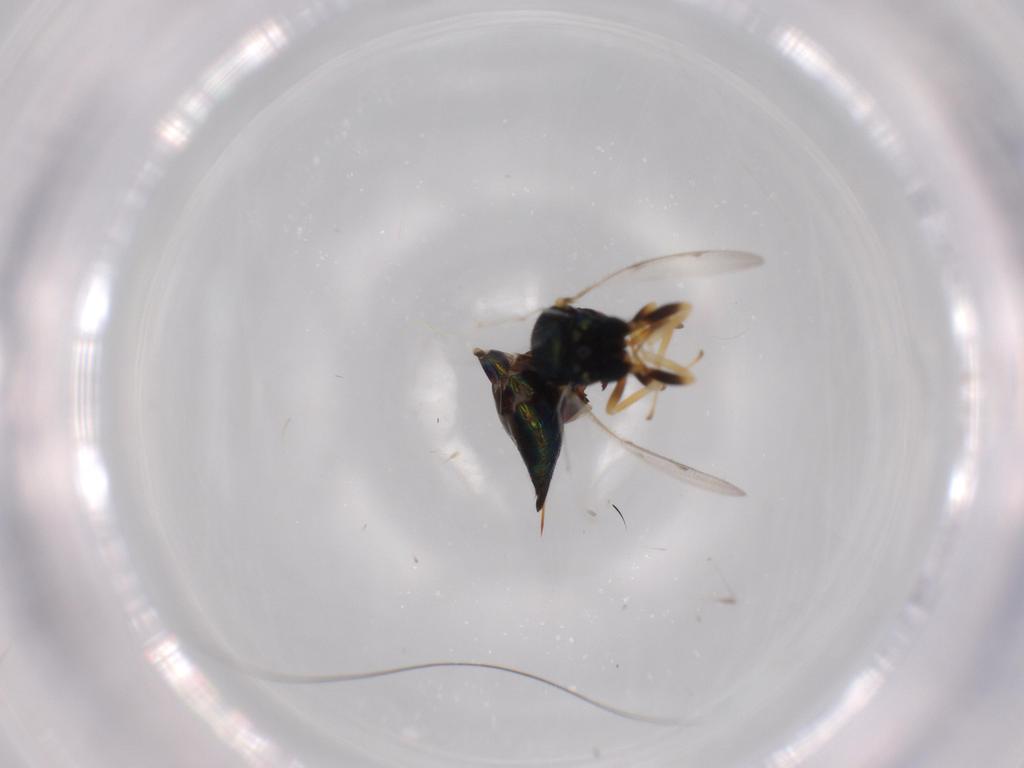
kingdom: Animalia
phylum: Arthropoda
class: Insecta
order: Hymenoptera
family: Pteromalidae
